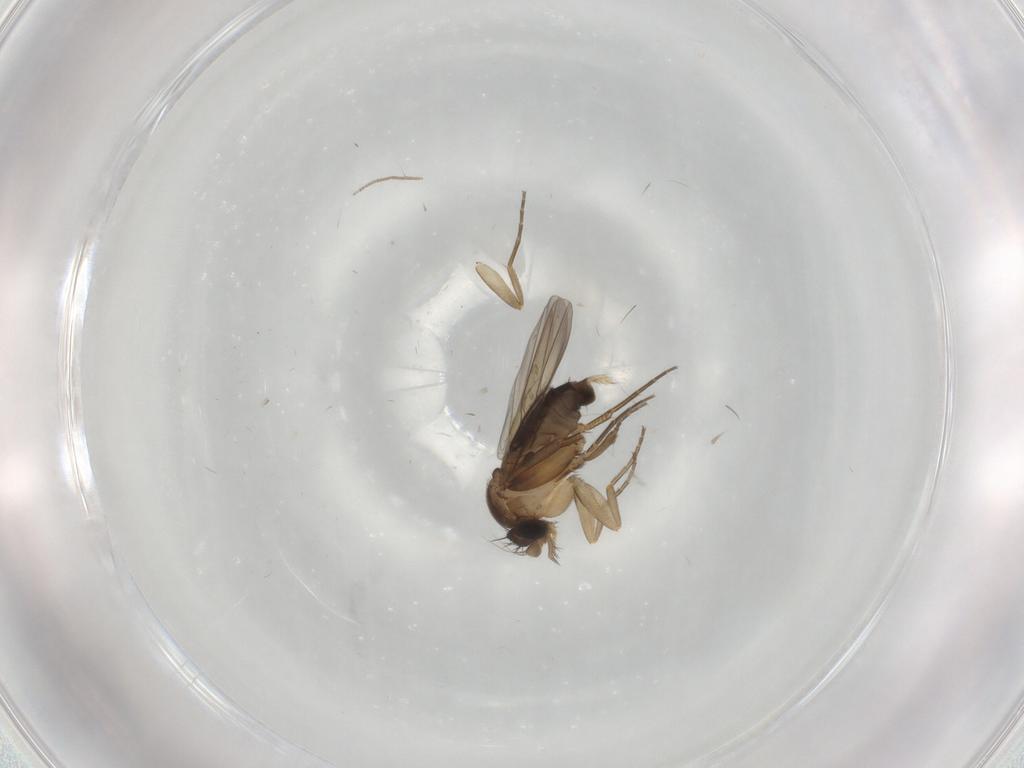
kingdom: Animalia
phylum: Arthropoda
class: Insecta
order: Diptera
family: Phoridae
